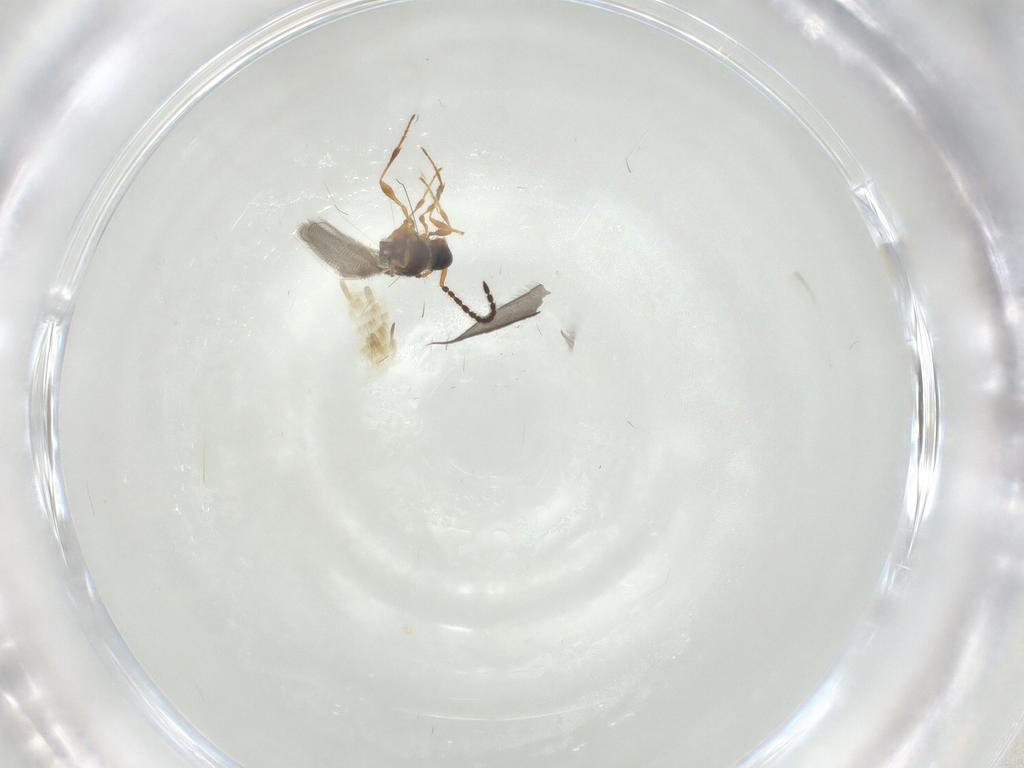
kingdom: Animalia
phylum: Arthropoda
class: Insecta
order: Hymenoptera
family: Diapriidae
